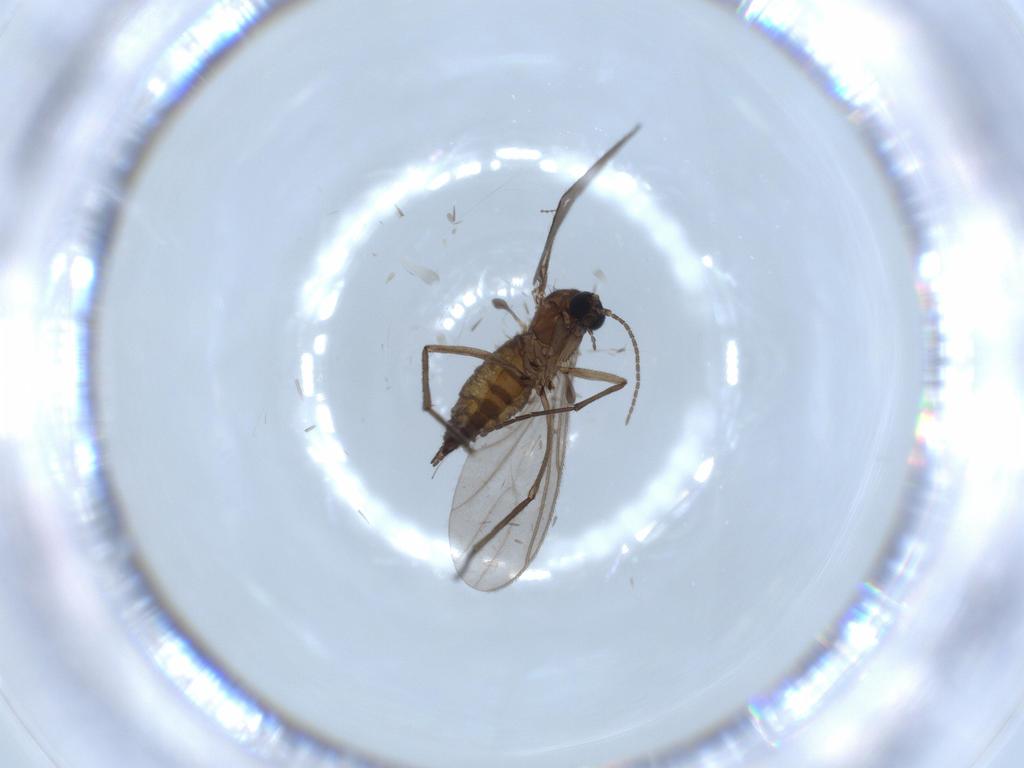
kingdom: Animalia
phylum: Arthropoda
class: Insecta
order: Diptera
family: Sciaridae
